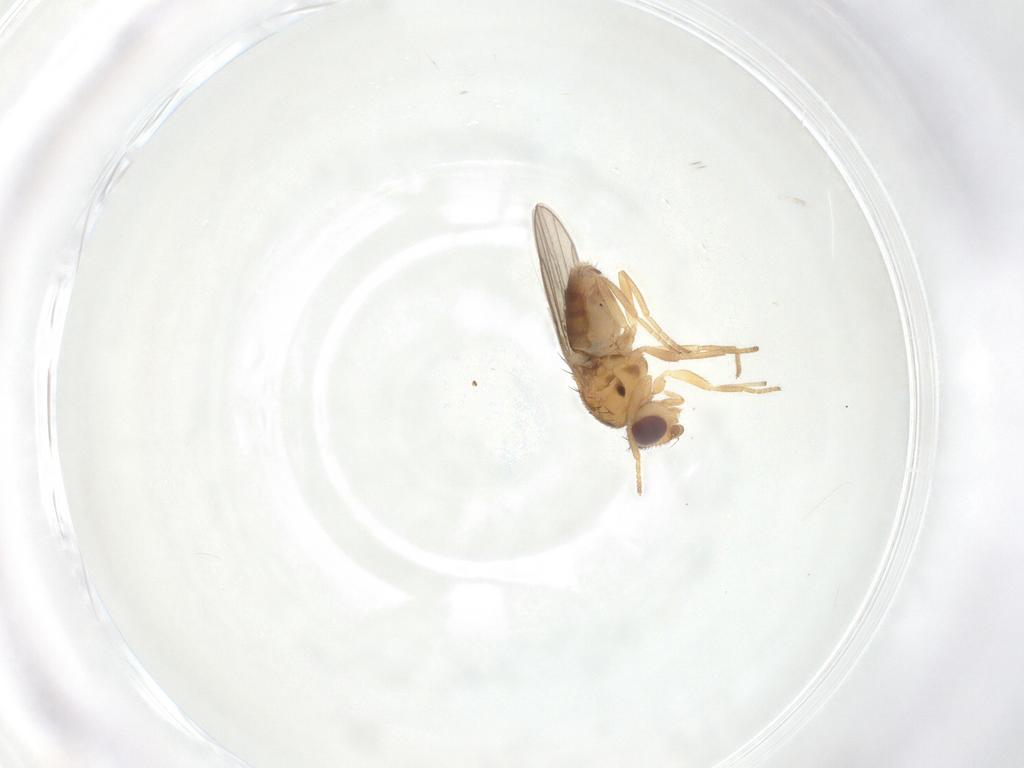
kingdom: Animalia
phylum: Arthropoda
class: Insecta
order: Diptera
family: Chloropidae
